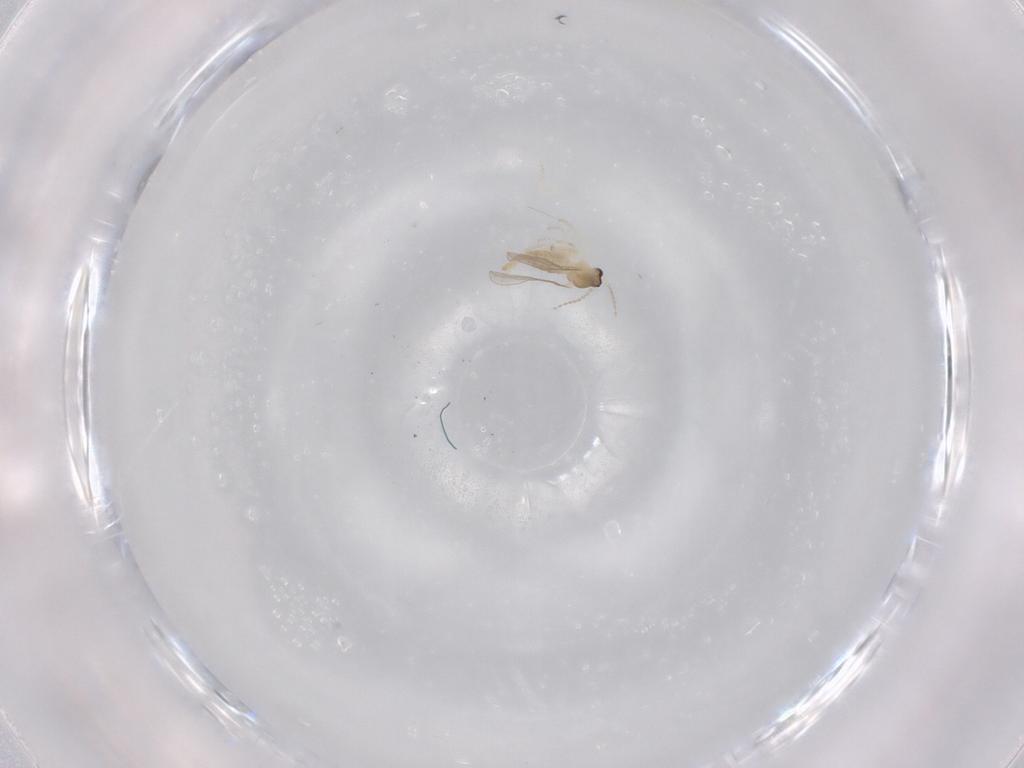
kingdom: Animalia
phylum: Arthropoda
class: Insecta
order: Diptera
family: Cecidomyiidae
